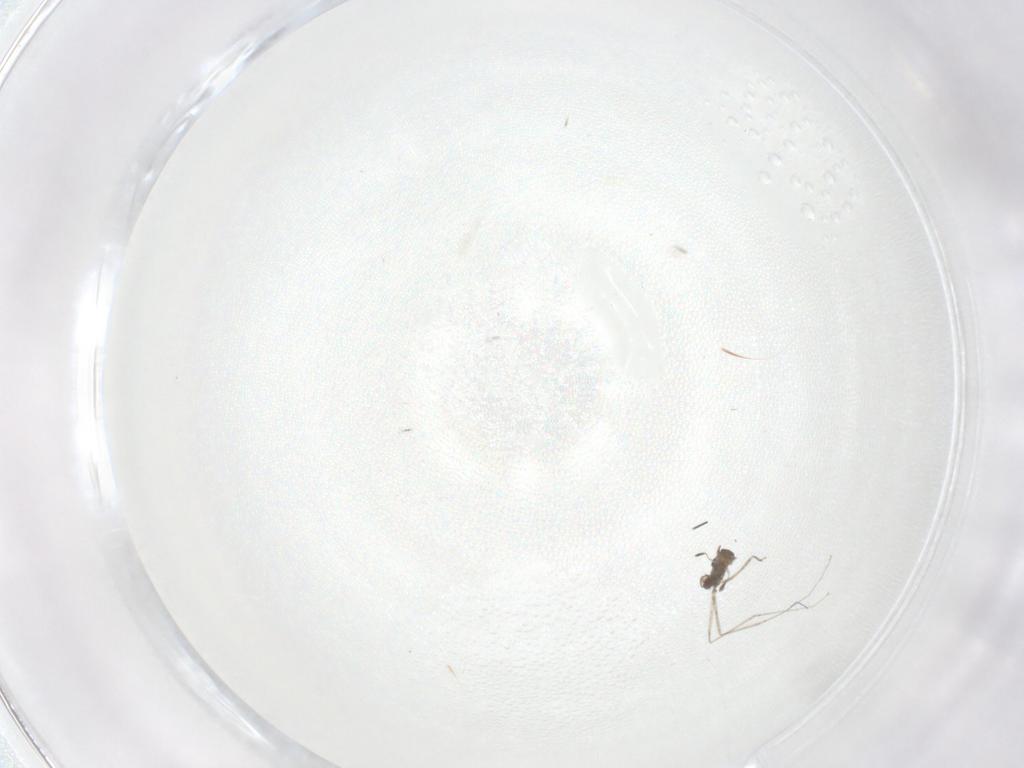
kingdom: Animalia
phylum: Arthropoda
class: Insecta
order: Diptera
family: Cecidomyiidae
